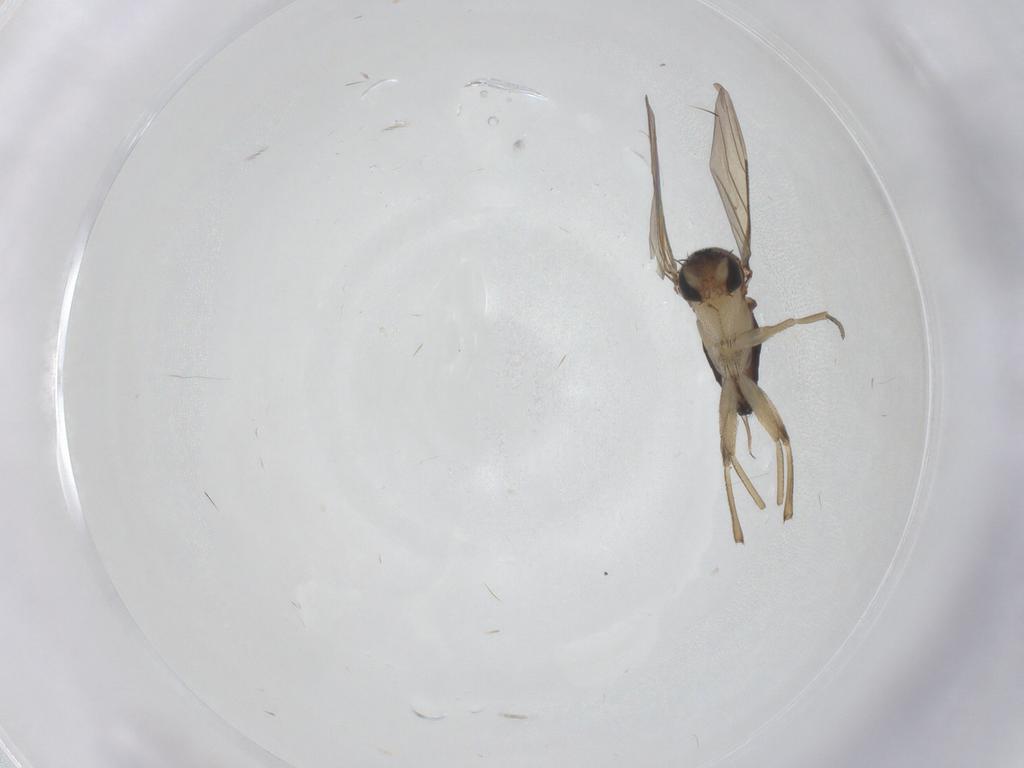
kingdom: Animalia
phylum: Arthropoda
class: Insecta
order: Diptera
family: Phoridae
